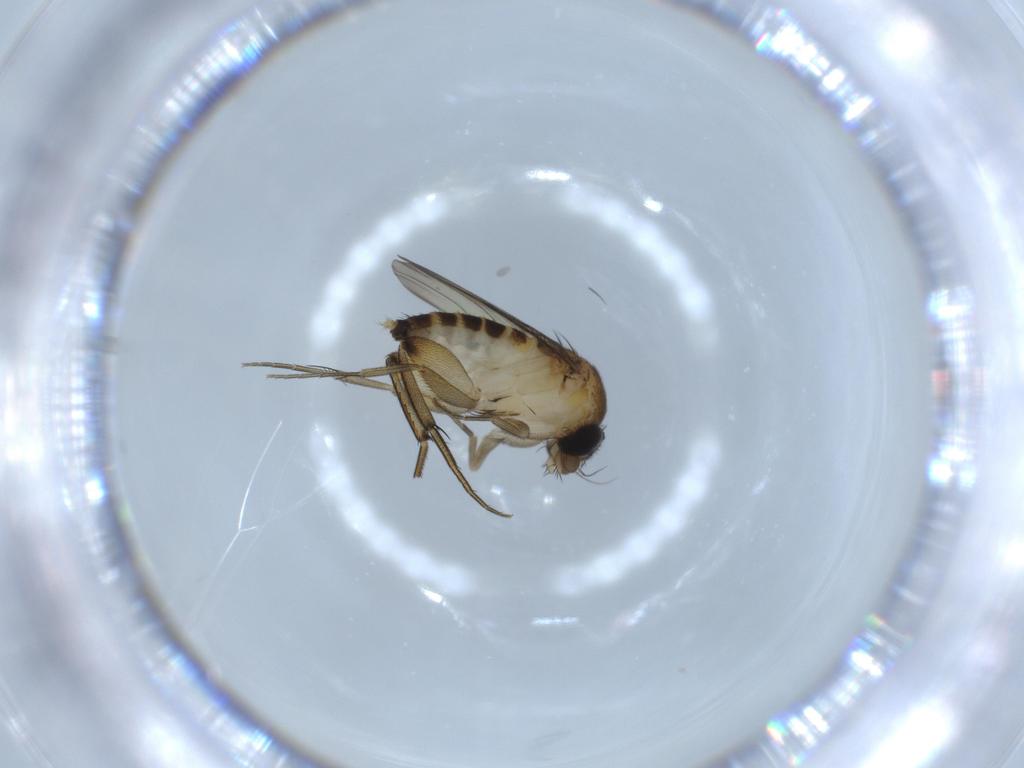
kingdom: Animalia
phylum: Arthropoda
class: Insecta
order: Diptera
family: Phoridae
